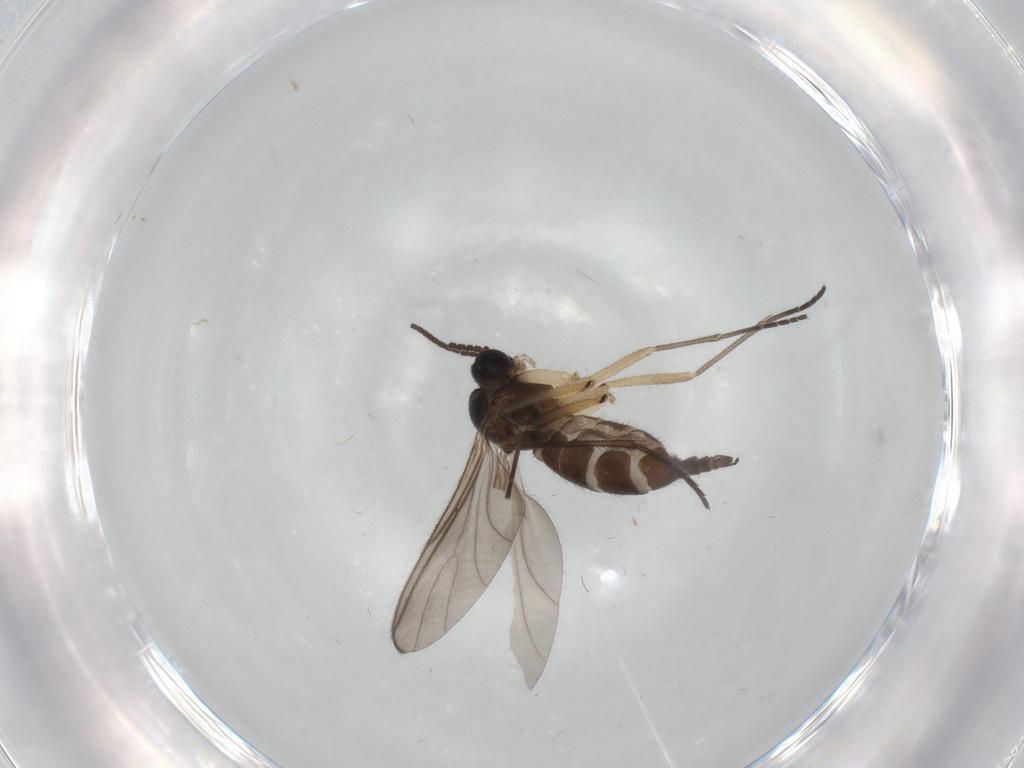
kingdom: Animalia
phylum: Arthropoda
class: Insecta
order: Diptera
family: Sciaridae
